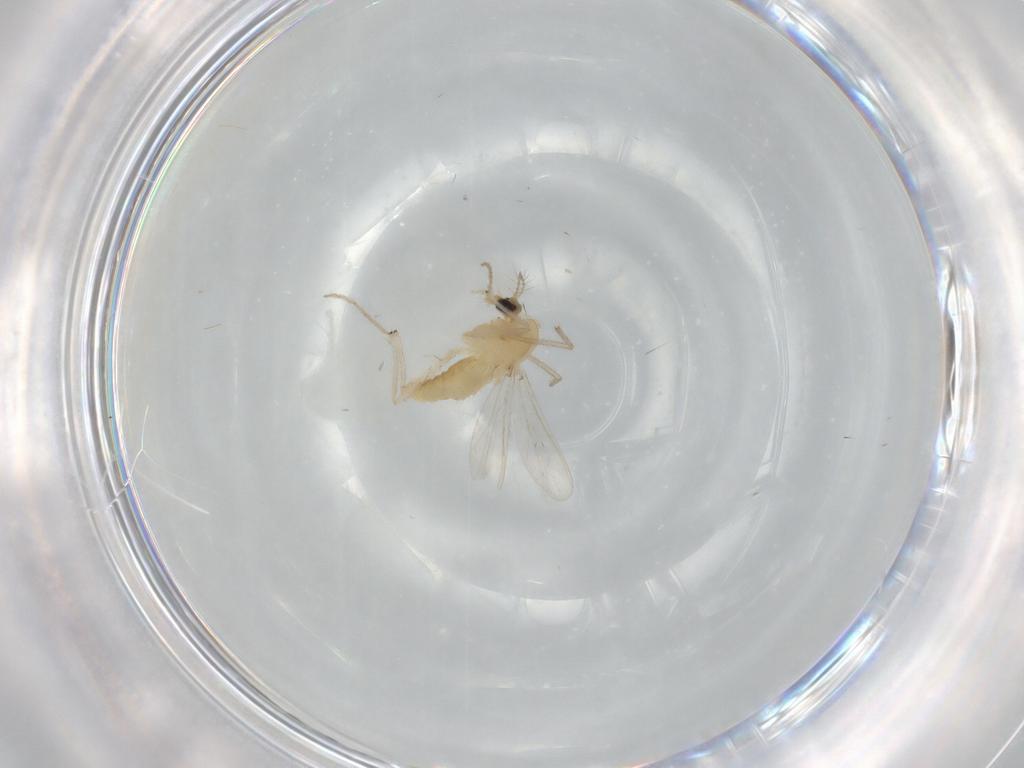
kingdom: Animalia
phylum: Arthropoda
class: Insecta
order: Diptera
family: Chironomidae
